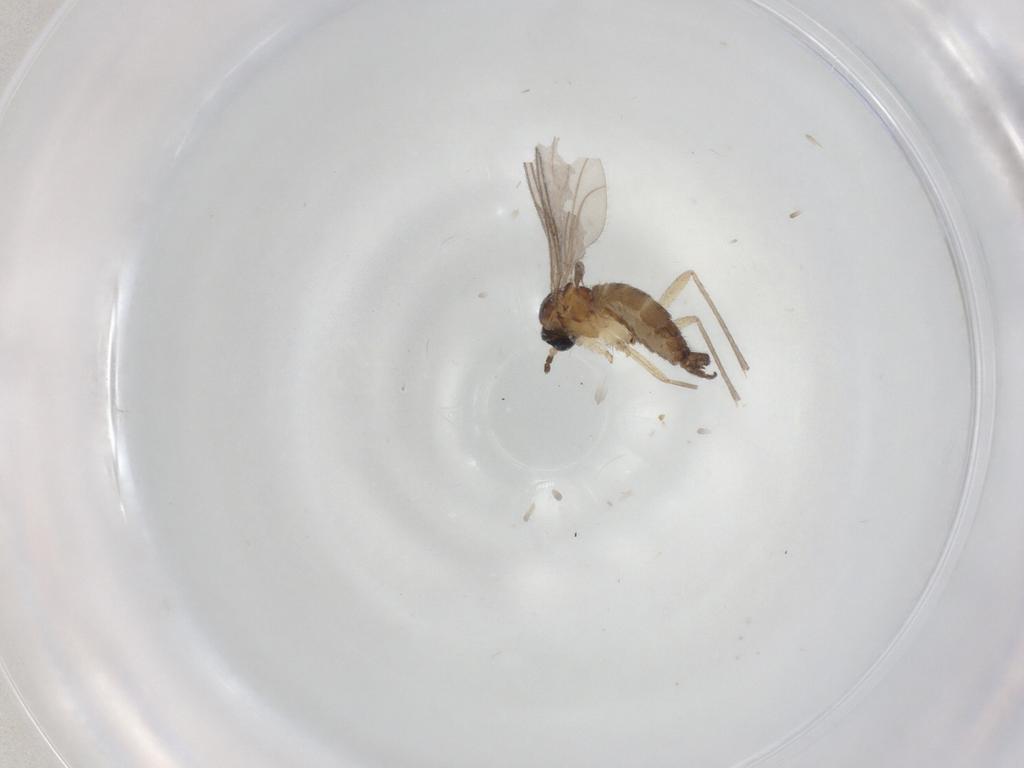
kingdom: Animalia
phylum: Arthropoda
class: Insecta
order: Diptera
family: Sciaridae
